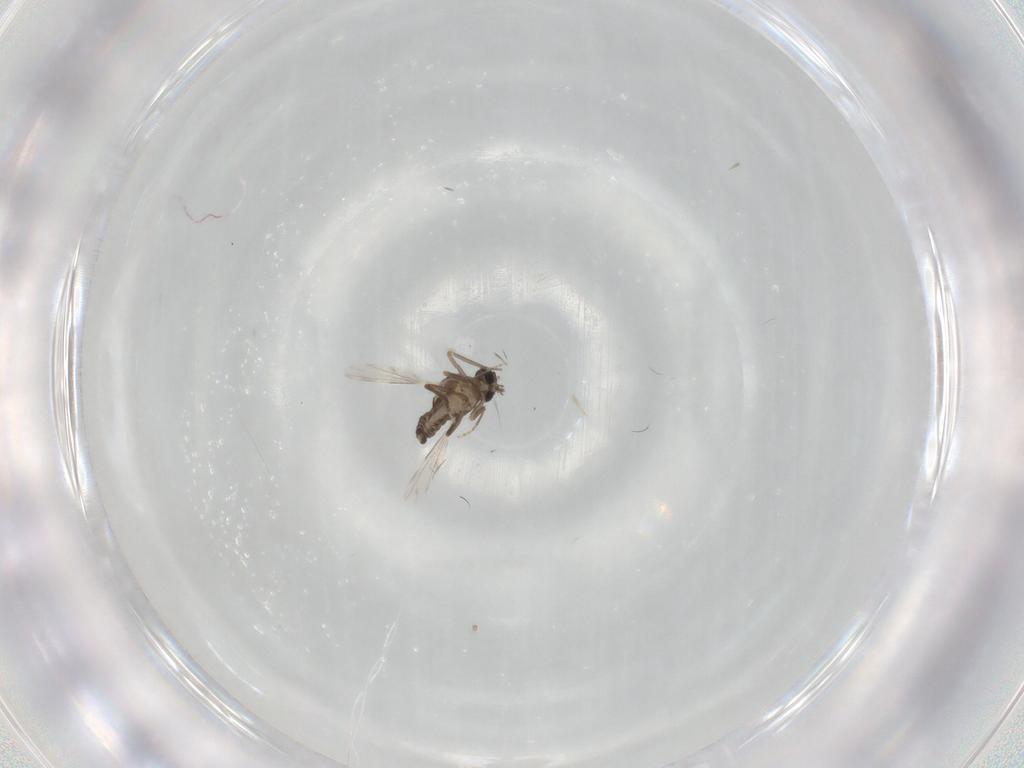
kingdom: Animalia
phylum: Arthropoda
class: Insecta
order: Diptera
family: Ceratopogonidae
